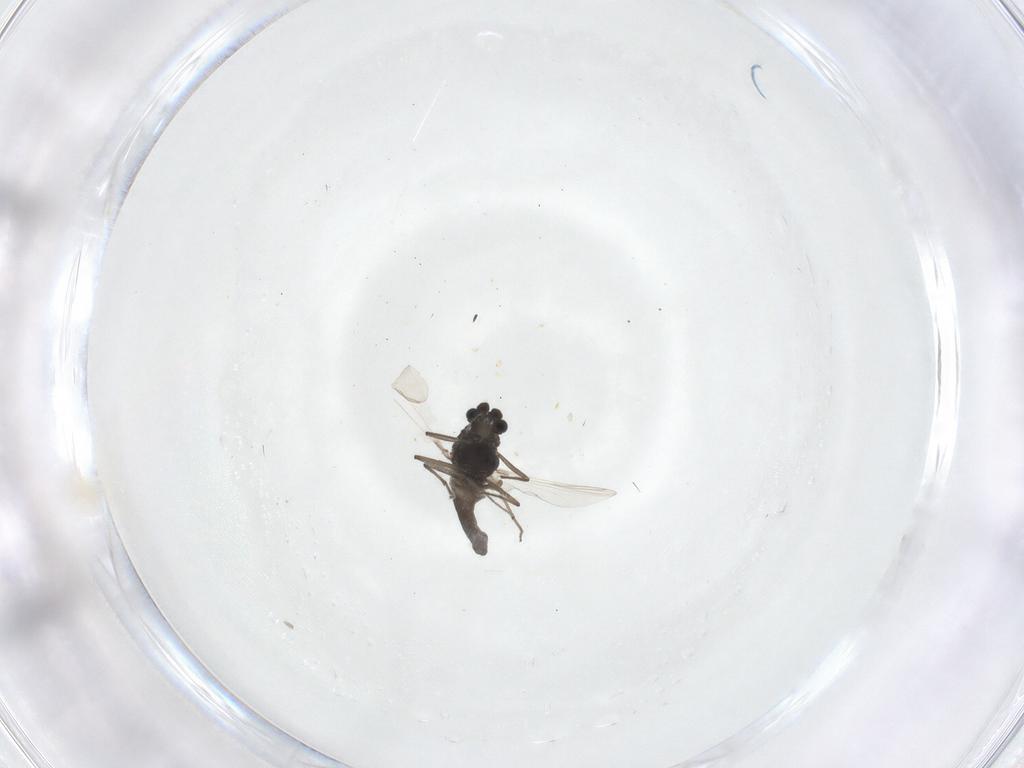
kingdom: Animalia
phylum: Arthropoda
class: Insecta
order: Diptera
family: Chironomidae
